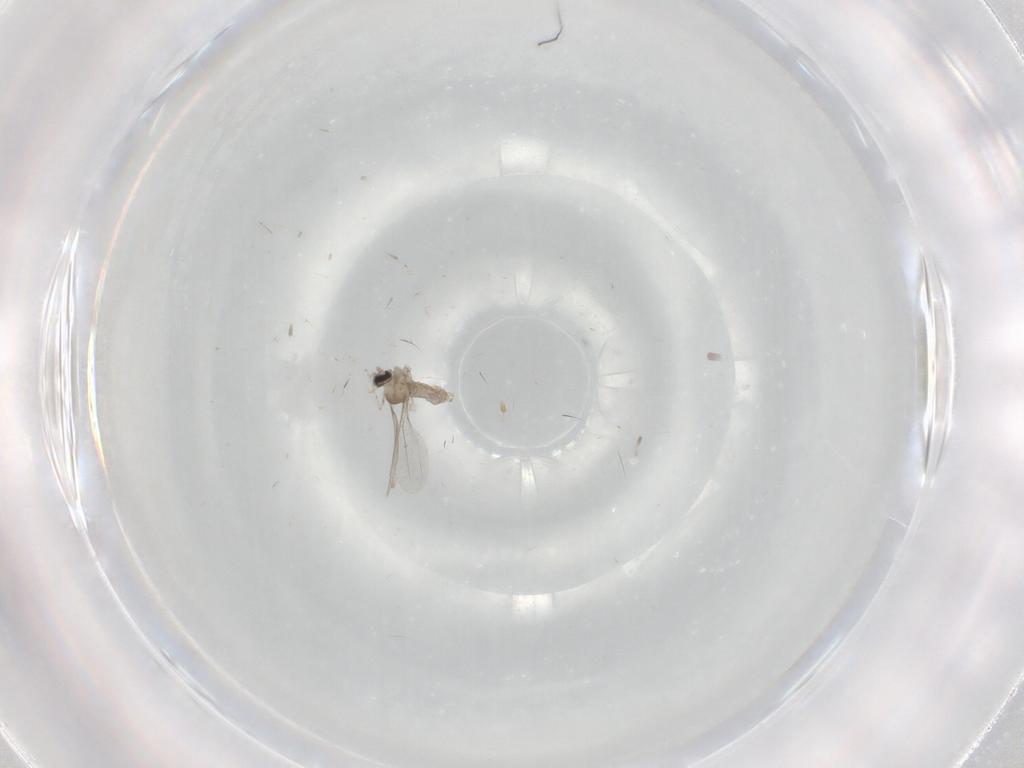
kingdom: Animalia
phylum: Arthropoda
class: Insecta
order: Diptera
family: Cecidomyiidae
